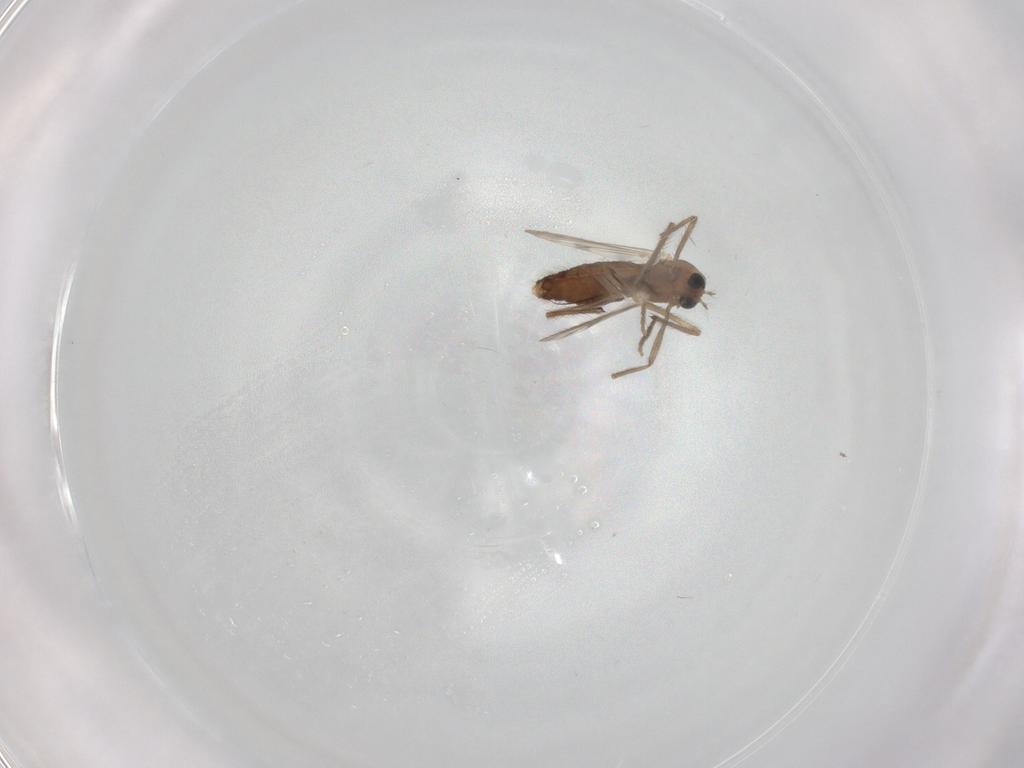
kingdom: Animalia
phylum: Arthropoda
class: Insecta
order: Diptera
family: Chironomidae
